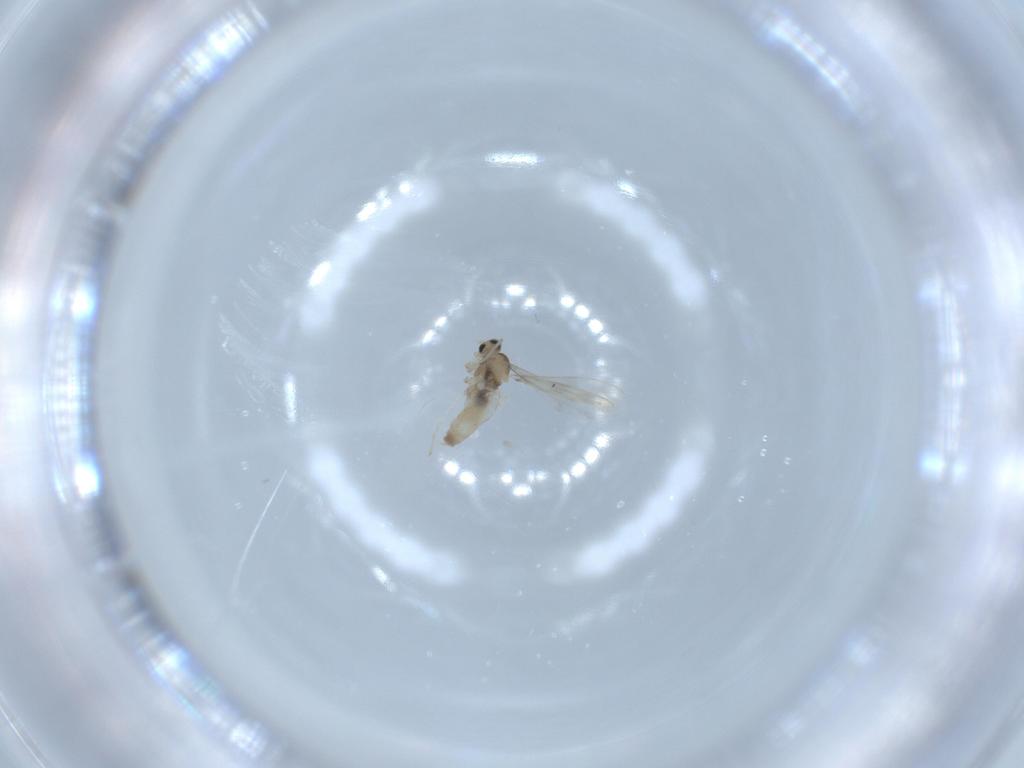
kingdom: Animalia
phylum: Arthropoda
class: Insecta
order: Diptera
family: Cecidomyiidae
